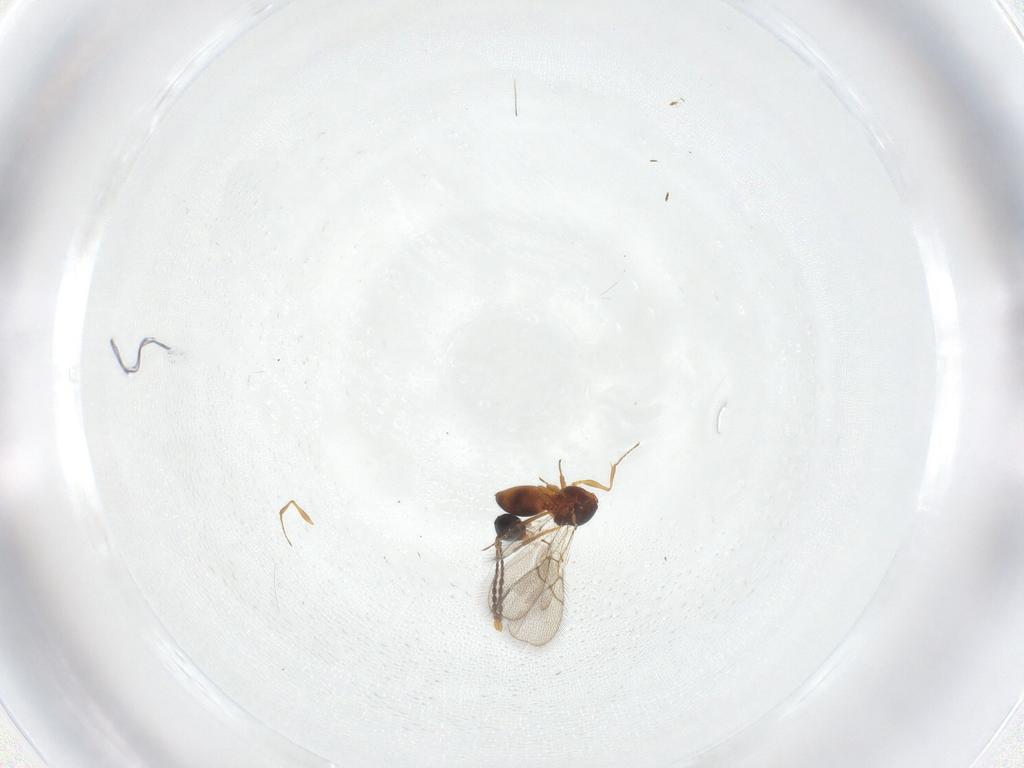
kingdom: Animalia
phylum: Arthropoda
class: Insecta
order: Hymenoptera
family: Figitidae
